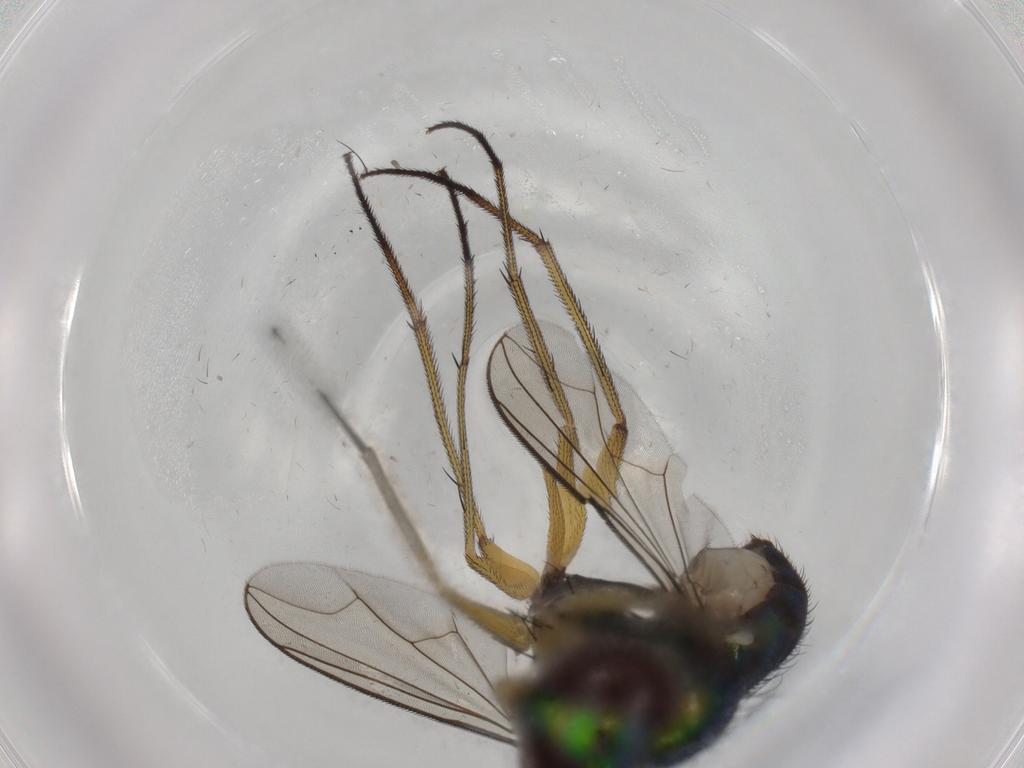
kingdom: Animalia
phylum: Arthropoda
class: Insecta
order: Diptera
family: Dolichopodidae
